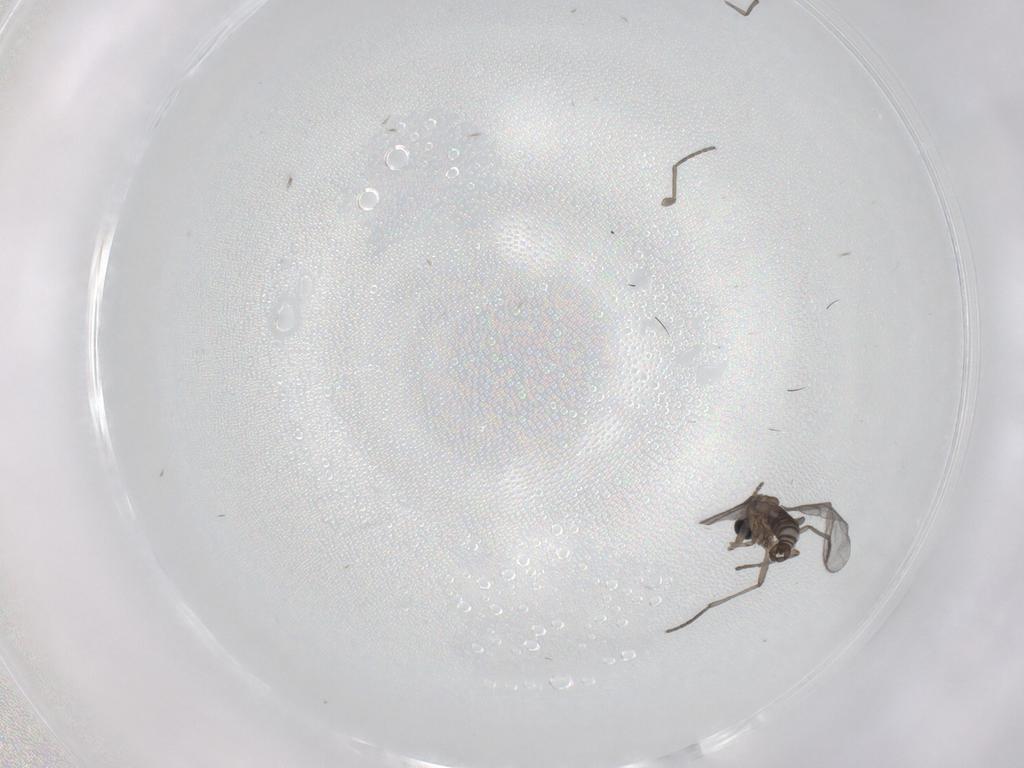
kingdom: Animalia
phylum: Arthropoda
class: Insecta
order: Diptera
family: Sciaridae
